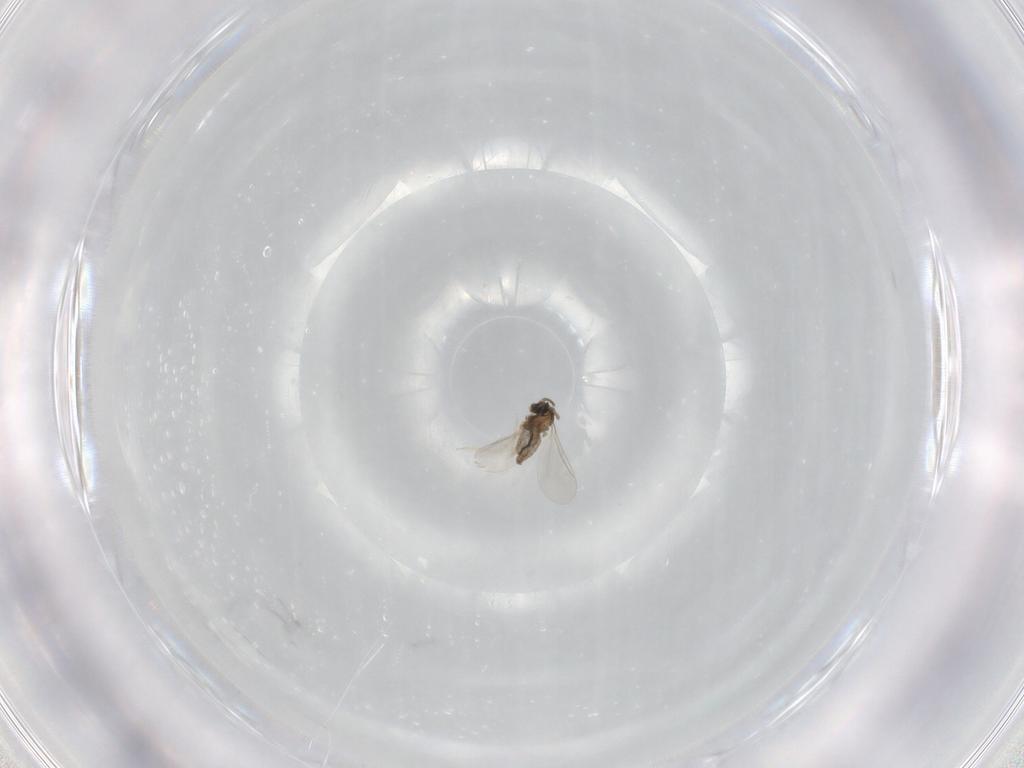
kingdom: Animalia
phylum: Arthropoda
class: Insecta
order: Diptera
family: Cecidomyiidae
